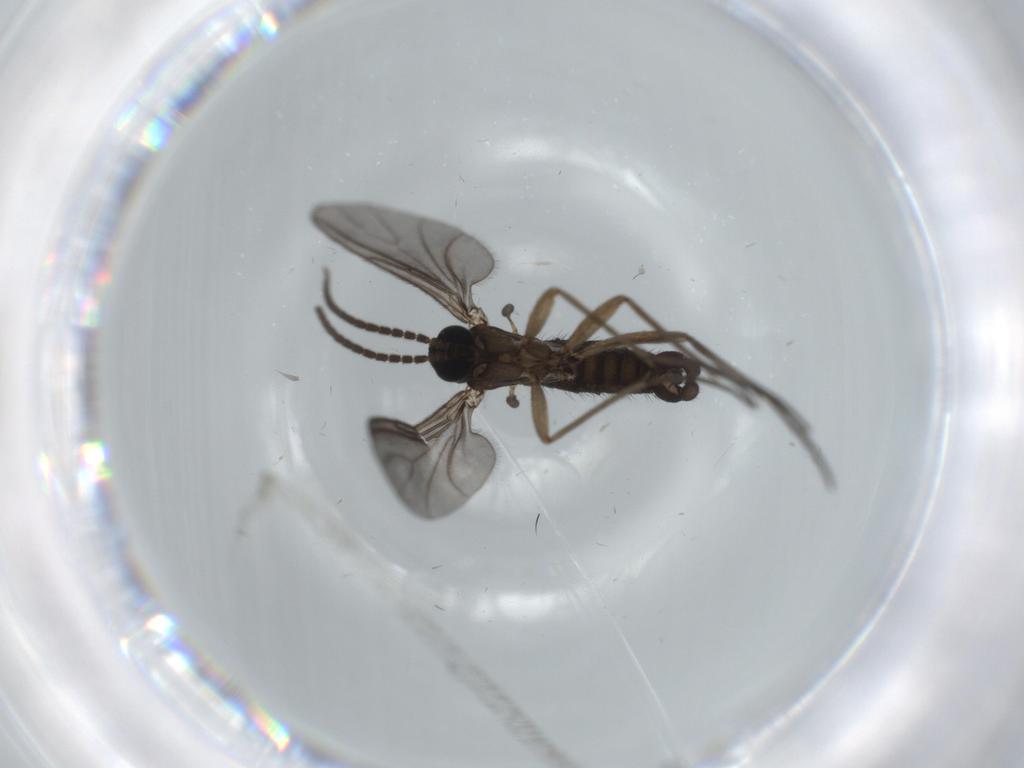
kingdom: Animalia
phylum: Arthropoda
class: Insecta
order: Diptera
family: Sciaridae
